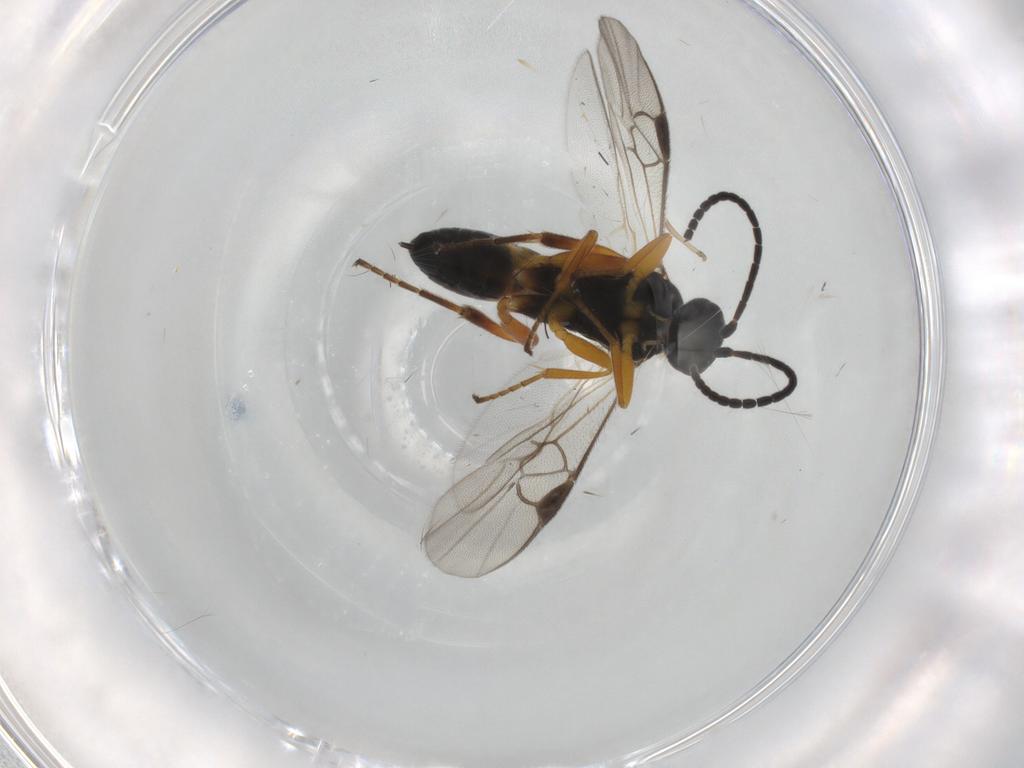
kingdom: Animalia
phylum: Arthropoda
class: Insecta
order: Hymenoptera
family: Braconidae
